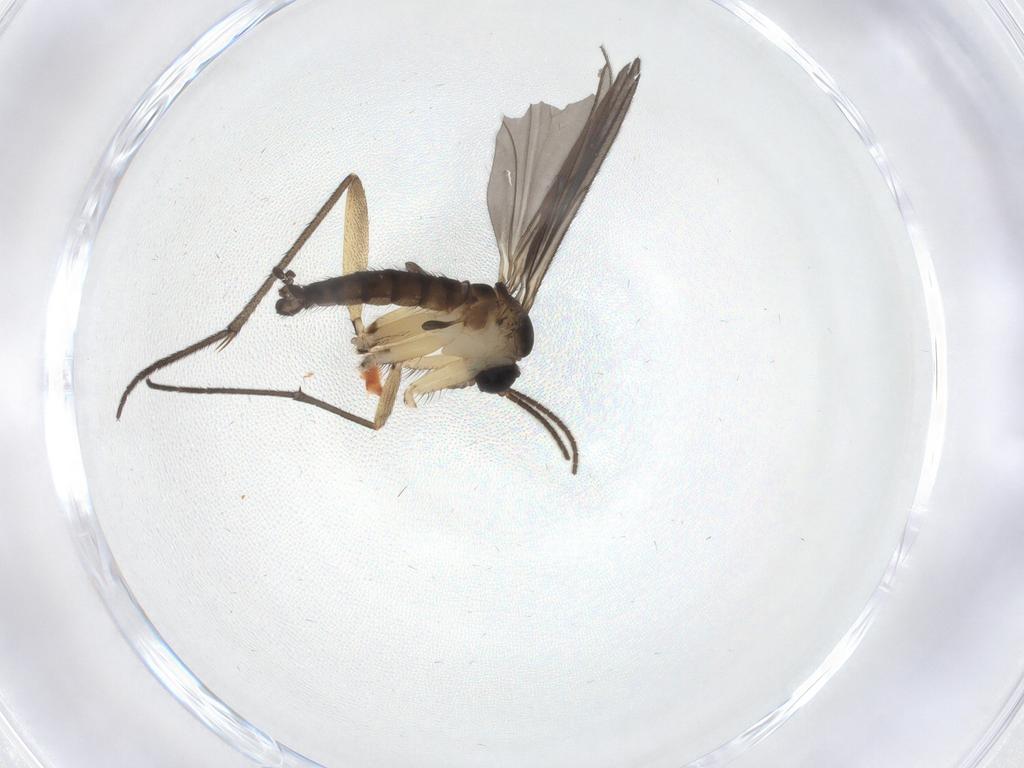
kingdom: Animalia
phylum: Arthropoda
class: Insecta
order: Diptera
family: Sciaridae
